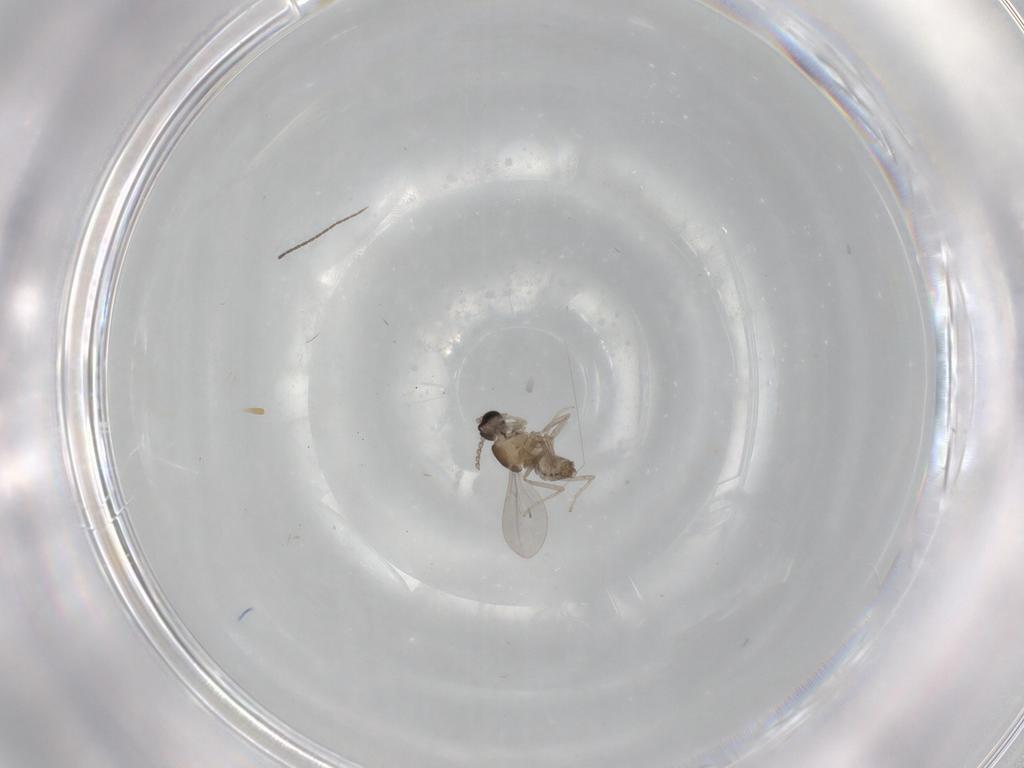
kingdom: Animalia
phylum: Arthropoda
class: Insecta
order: Diptera
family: Cecidomyiidae
